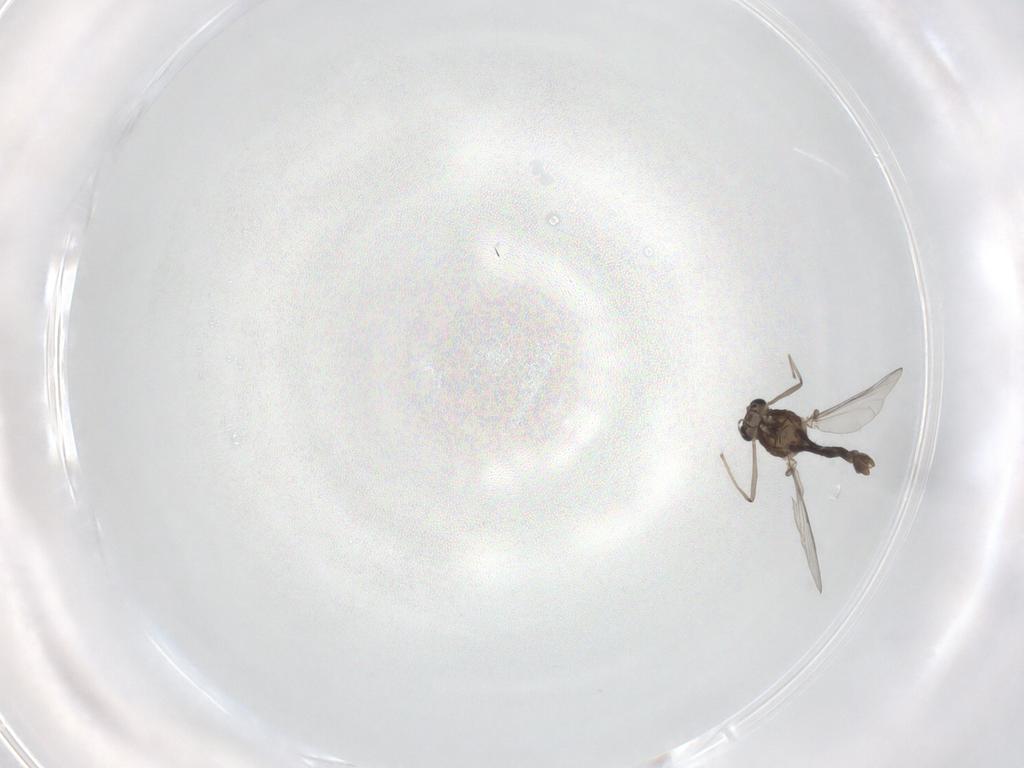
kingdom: Animalia
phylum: Arthropoda
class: Insecta
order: Diptera
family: Chironomidae
